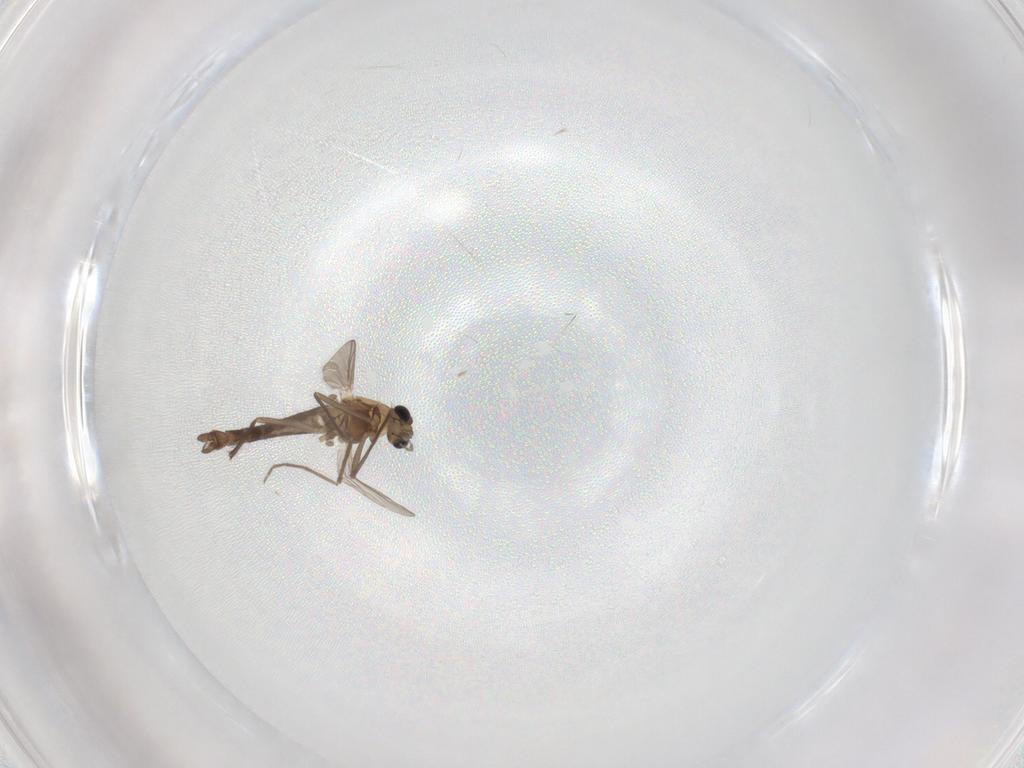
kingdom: Animalia
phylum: Arthropoda
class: Insecta
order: Diptera
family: Chironomidae
